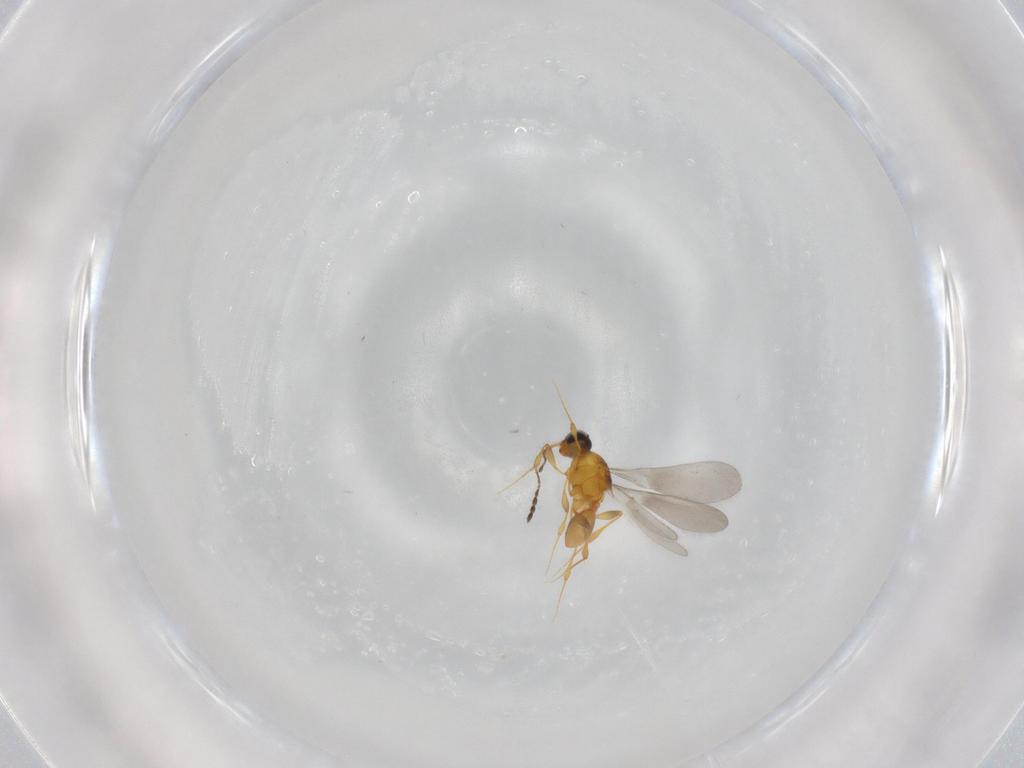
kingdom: Animalia
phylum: Arthropoda
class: Insecta
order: Hymenoptera
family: Platygastridae
